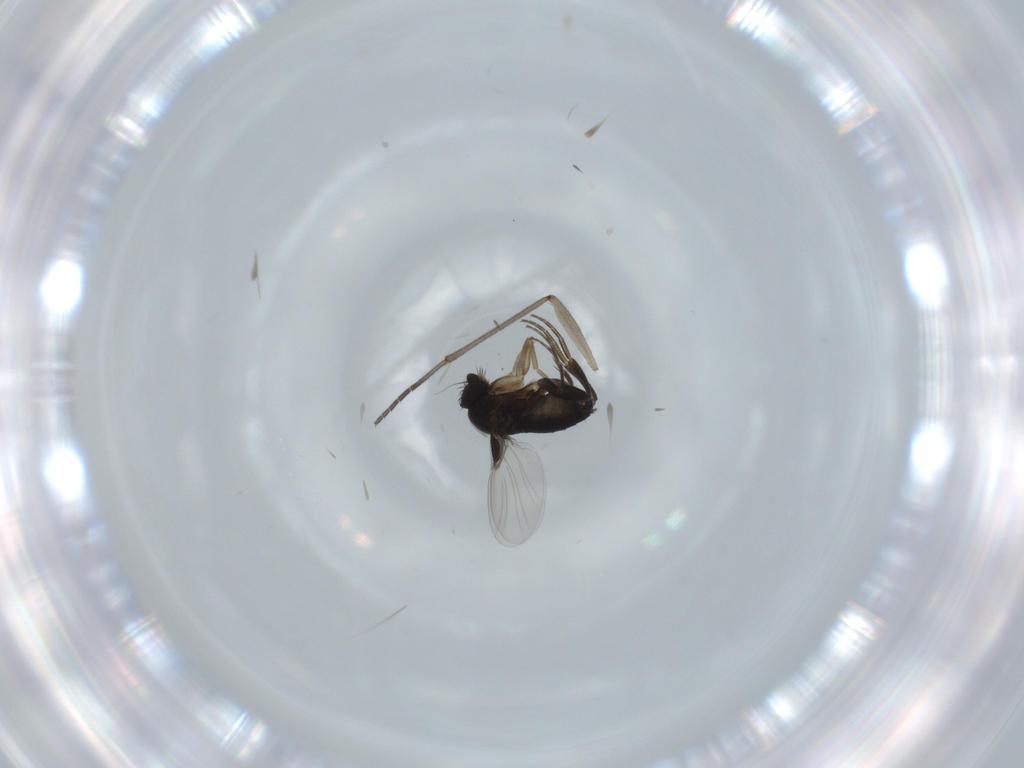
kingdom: Animalia
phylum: Arthropoda
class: Insecta
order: Diptera
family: Phoridae
